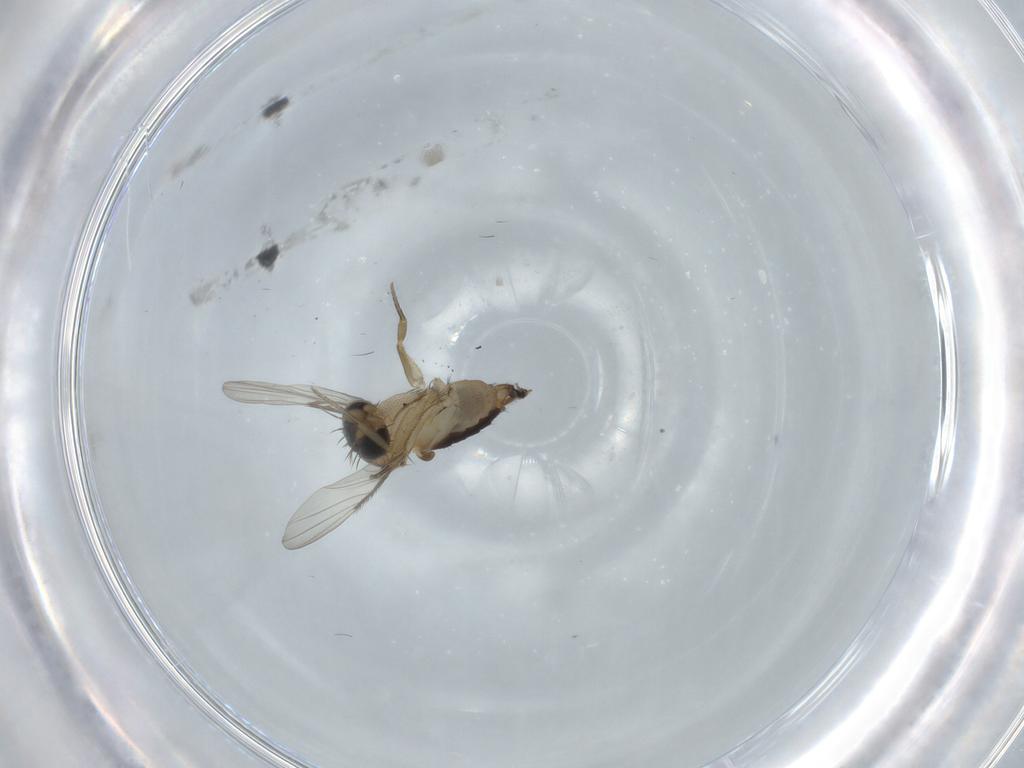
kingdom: Animalia
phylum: Arthropoda
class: Insecta
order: Diptera
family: Phoridae
